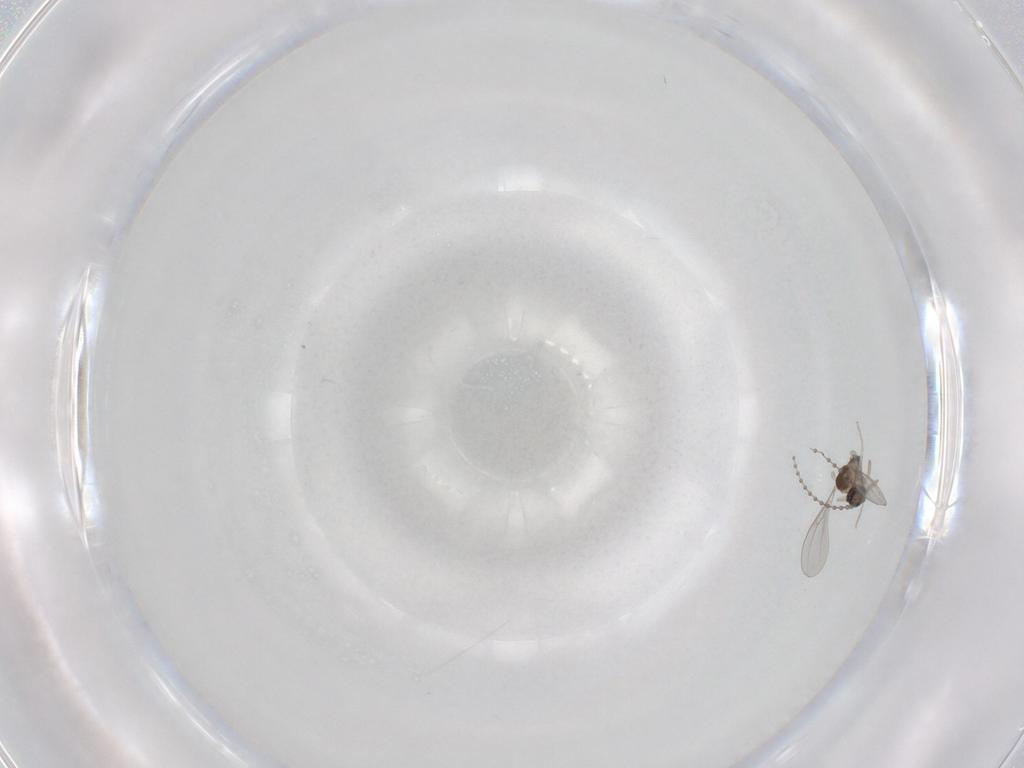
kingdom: Animalia
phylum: Arthropoda
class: Insecta
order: Diptera
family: Cecidomyiidae
